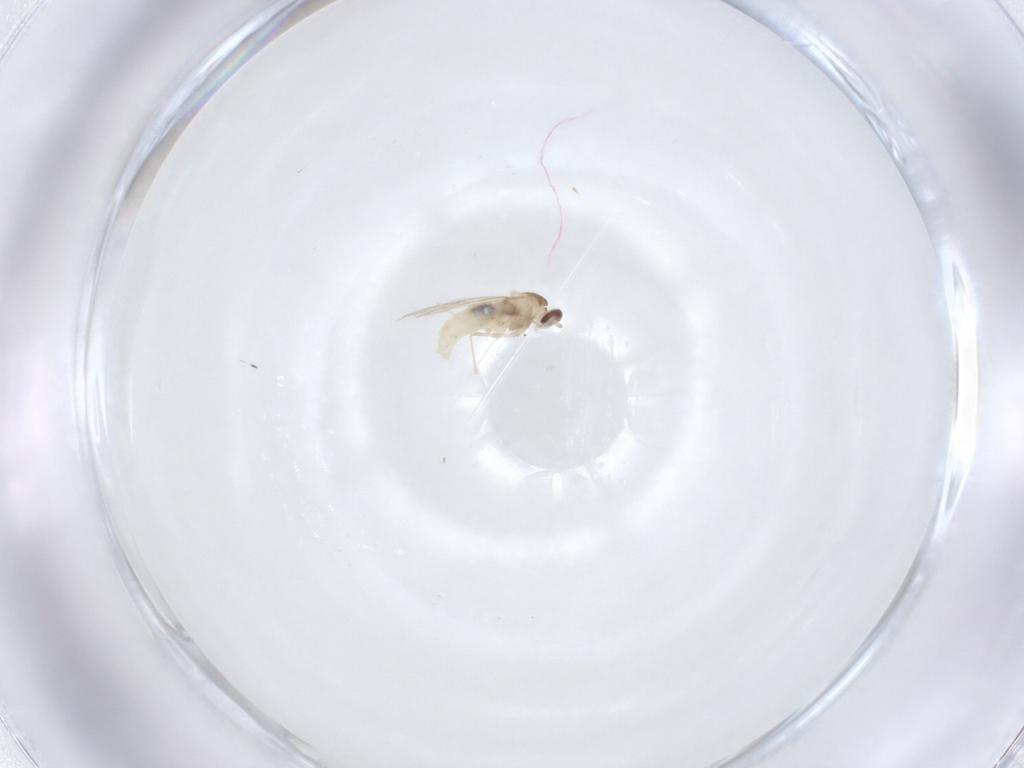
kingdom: Animalia
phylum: Arthropoda
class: Insecta
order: Diptera
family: Cecidomyiidae
